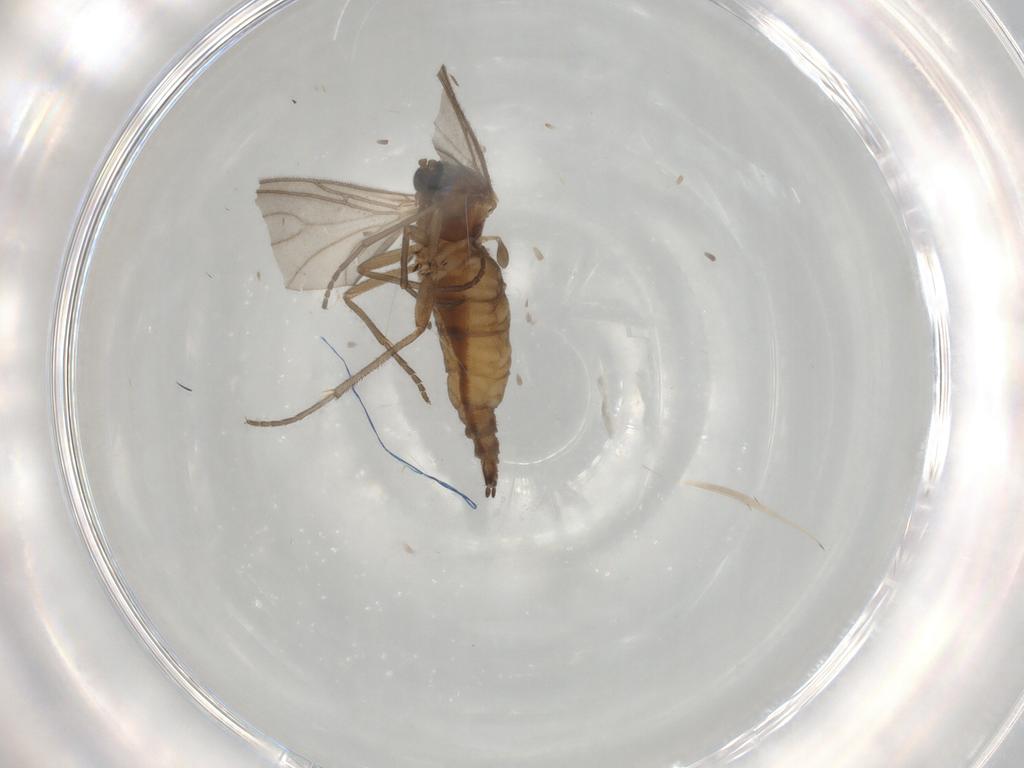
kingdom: Animalia
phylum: Arthropoda
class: Insecta
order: Diptera
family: Sciaridae
